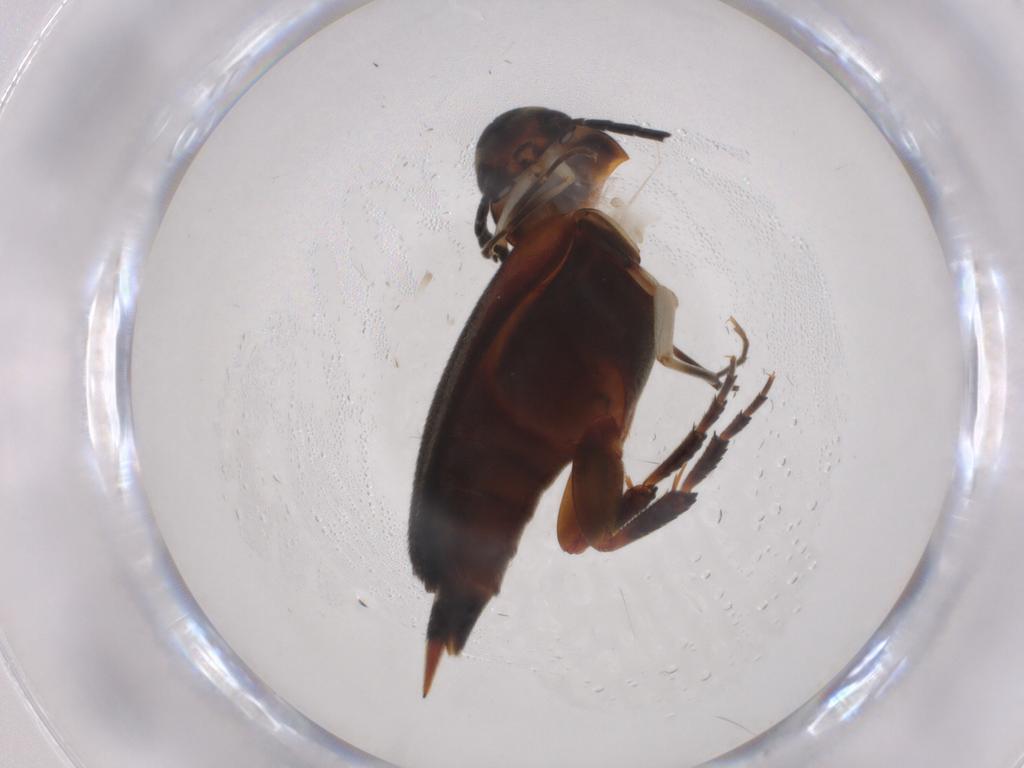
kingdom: Animalia
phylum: Arthropoda
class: Insecta
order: Coleoptera
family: Mordellidae
